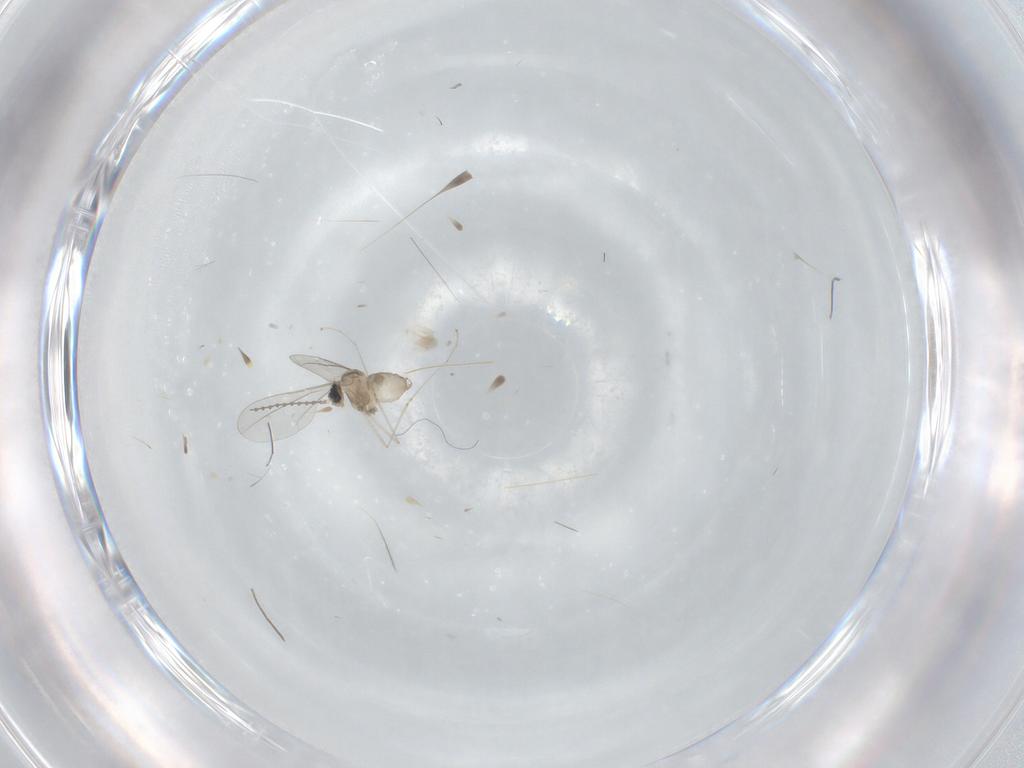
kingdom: Animalia
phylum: Arthropoda
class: Insecta
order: Diptera
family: Cecidomyiidae
